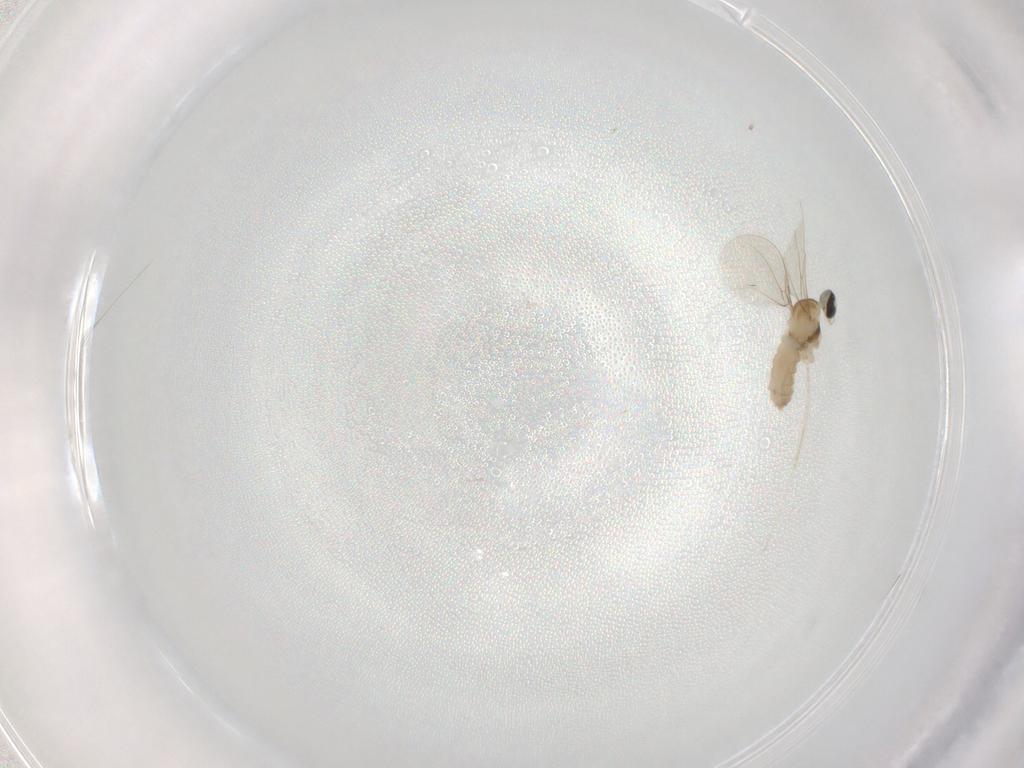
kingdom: Animalia
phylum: Arthropoda
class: Insecta
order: Diptera
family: Cecidomyiidae
